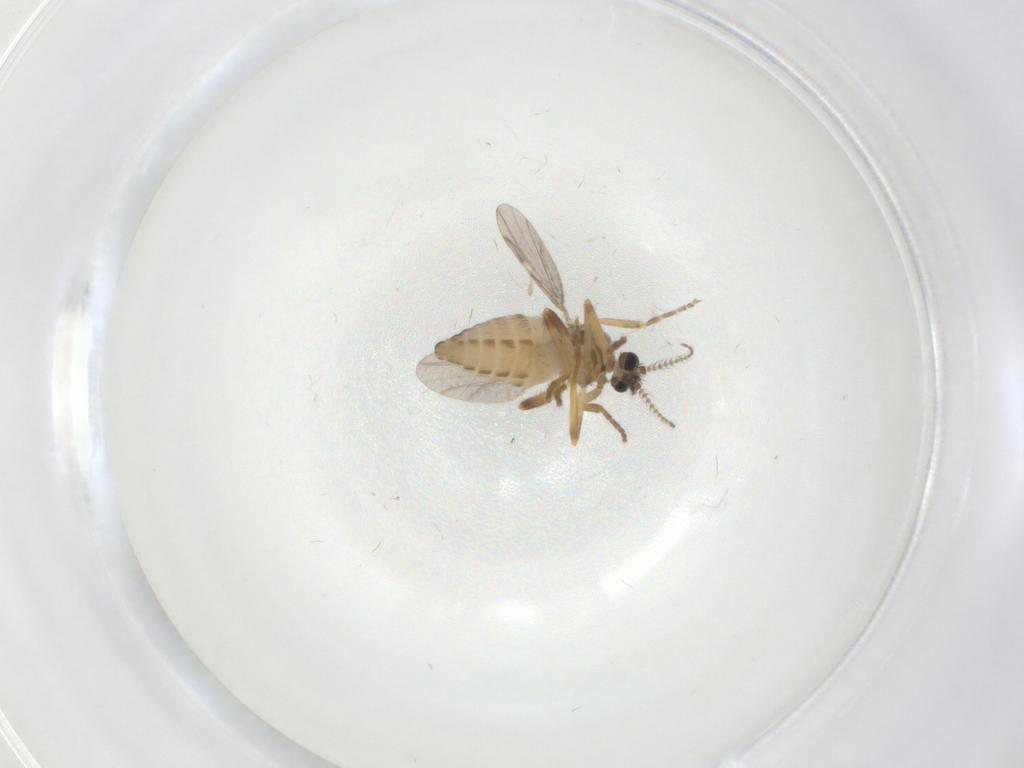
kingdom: Animalia
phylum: Arthropoda
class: Insecta
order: Diptera
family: Ceratopogonidae
